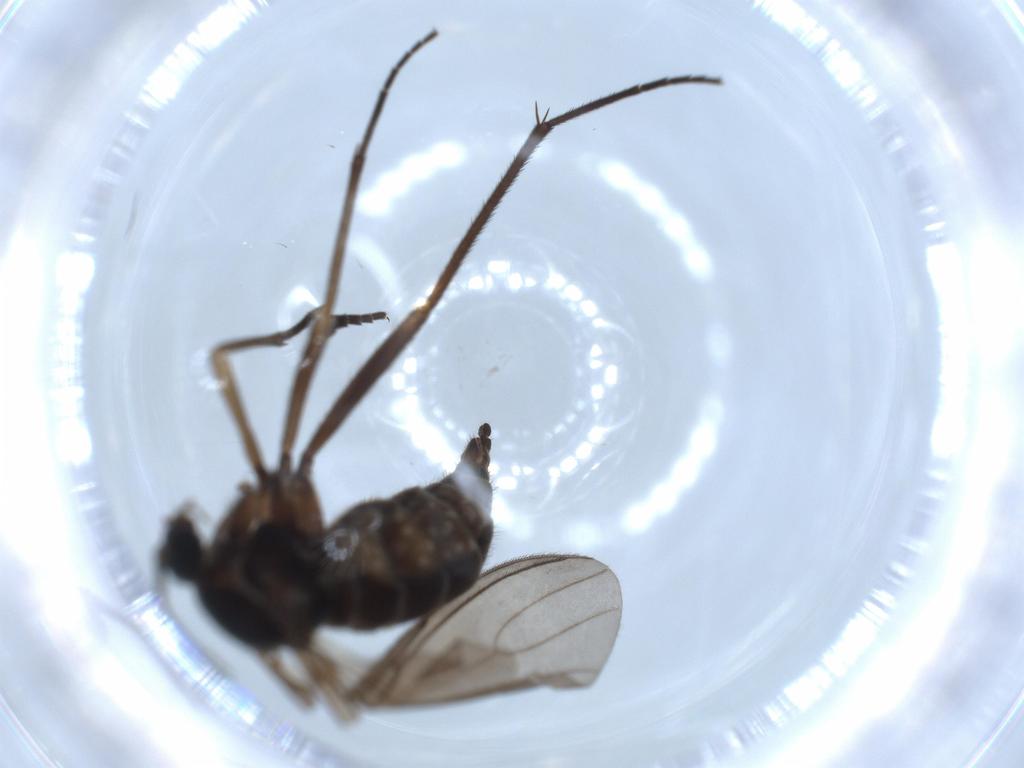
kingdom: Animalia
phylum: Arthropoda
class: Insecta
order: Diptera
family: Sciaridae
